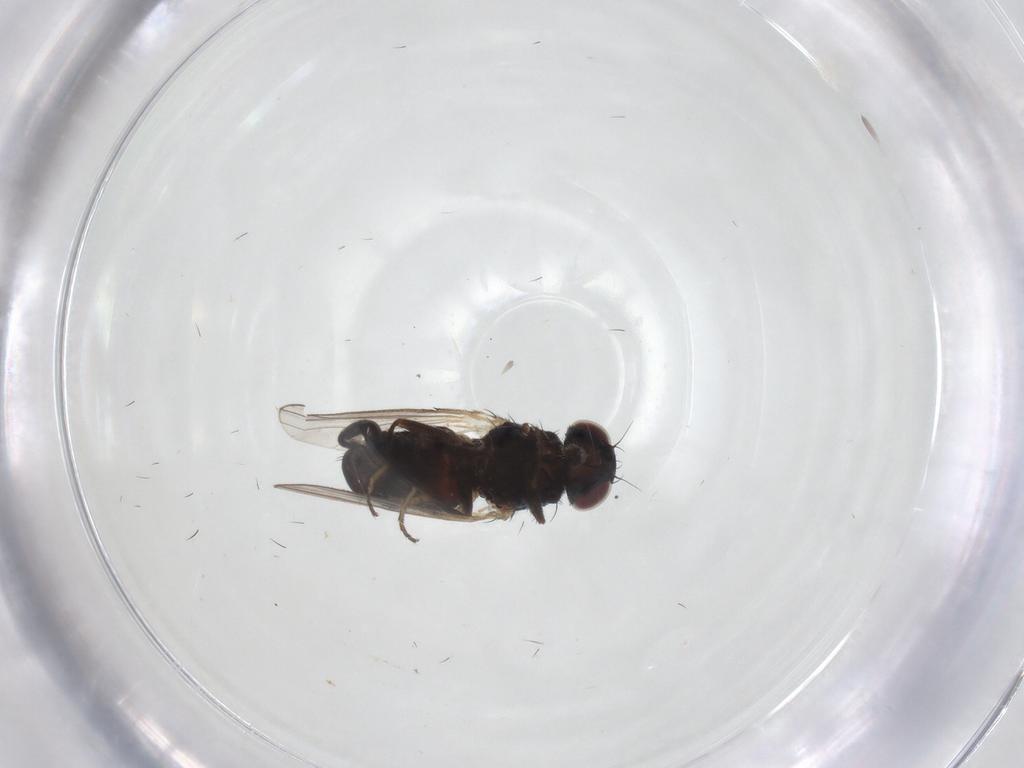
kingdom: Animalia
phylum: Arthropoda
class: Insecta
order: Diptera
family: Carnidae
